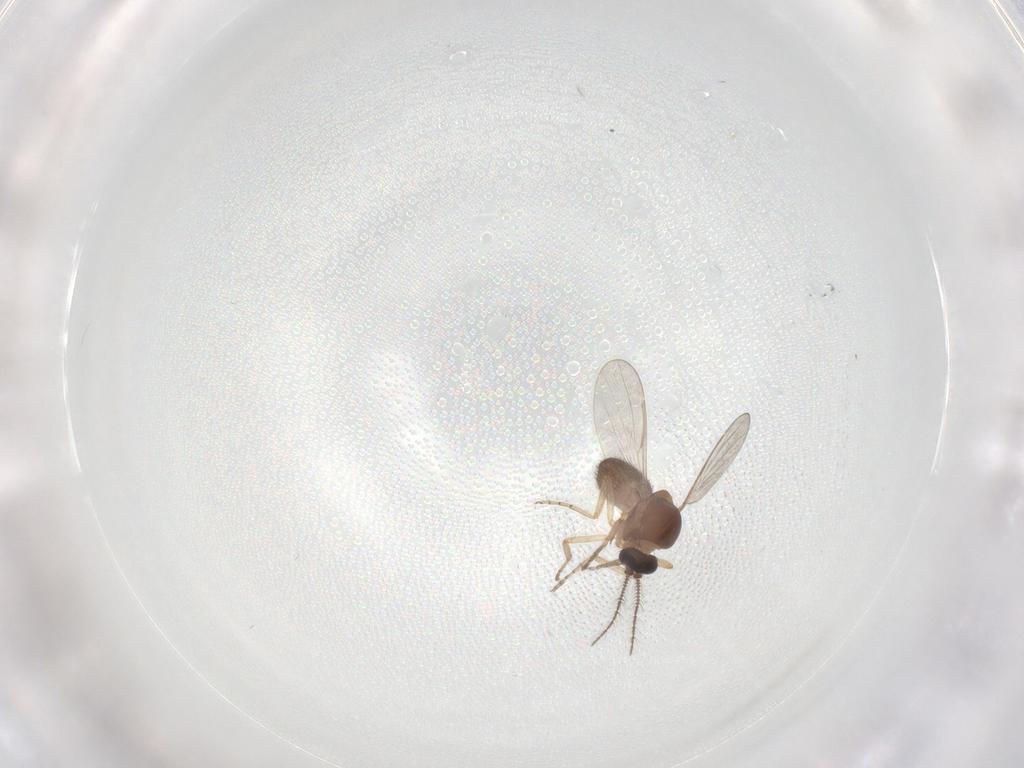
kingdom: Animalia
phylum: Arthropoda
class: Insecta
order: Diptera
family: Ceratopogonidae
